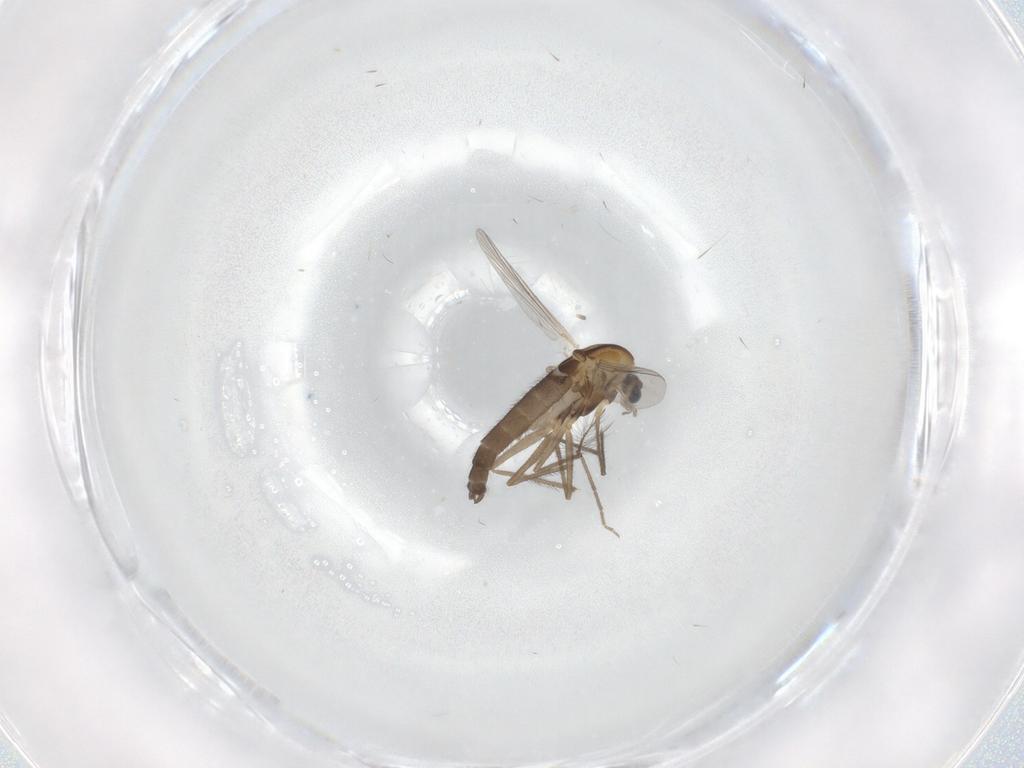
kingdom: Animalia
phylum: Arthropoda
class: Insecta
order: Diptera
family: Chironomidae
